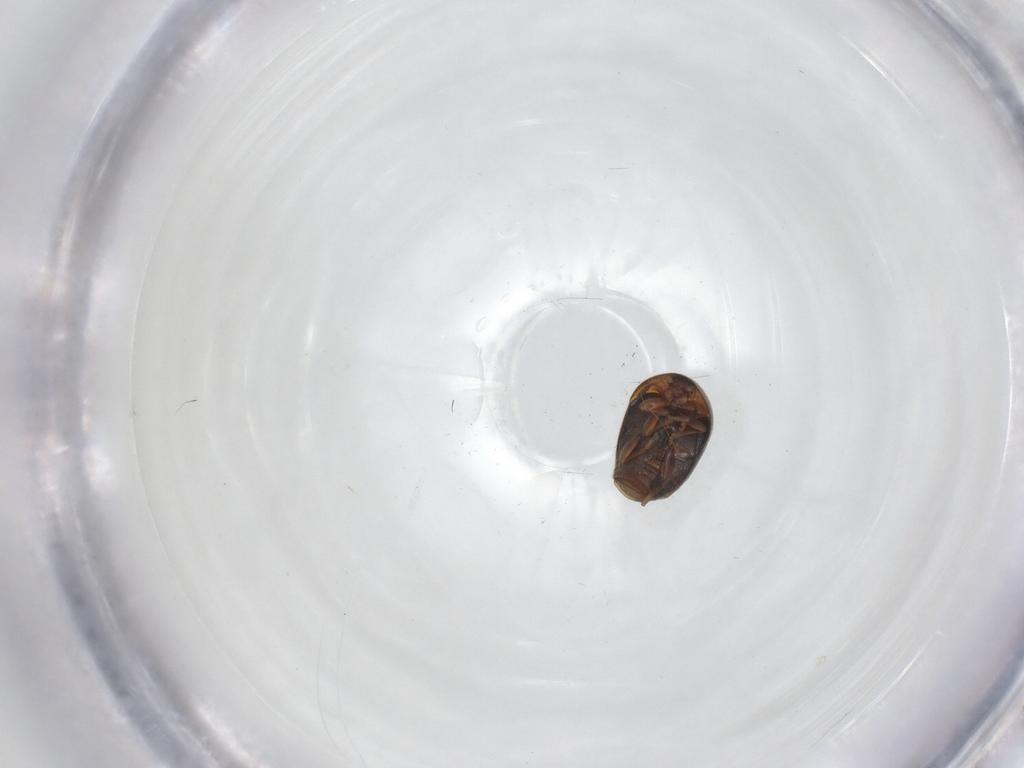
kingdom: Animalia
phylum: Arthropoda
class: Insecta
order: Coleoptera
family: Corylophidae
